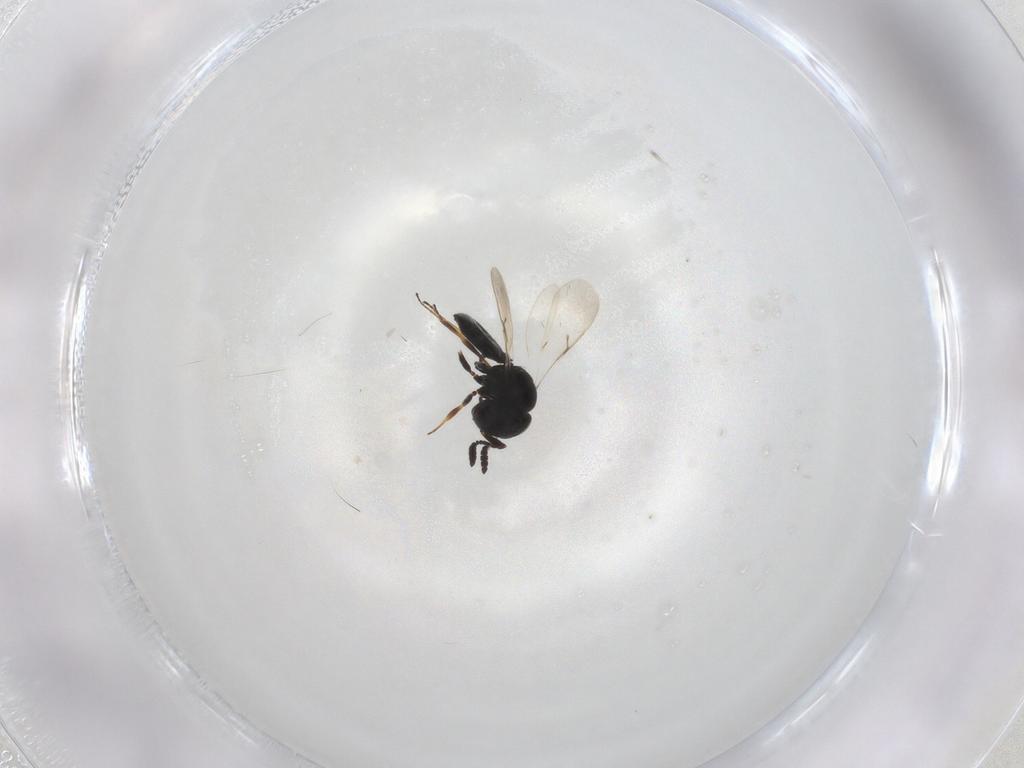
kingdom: Animalia
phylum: Arthropoda
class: Insecta
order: Hymenoptera
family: Scelionidae
